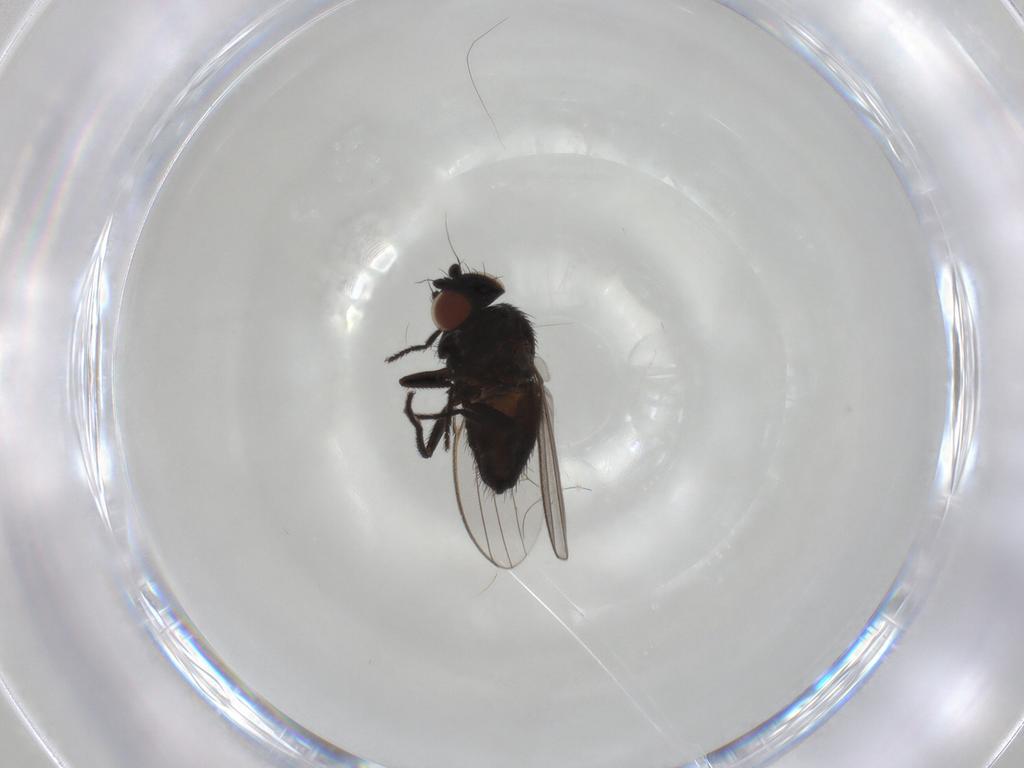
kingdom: Animalia
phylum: Arthropoda
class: Insecta
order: Diptera
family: Milichiidae
